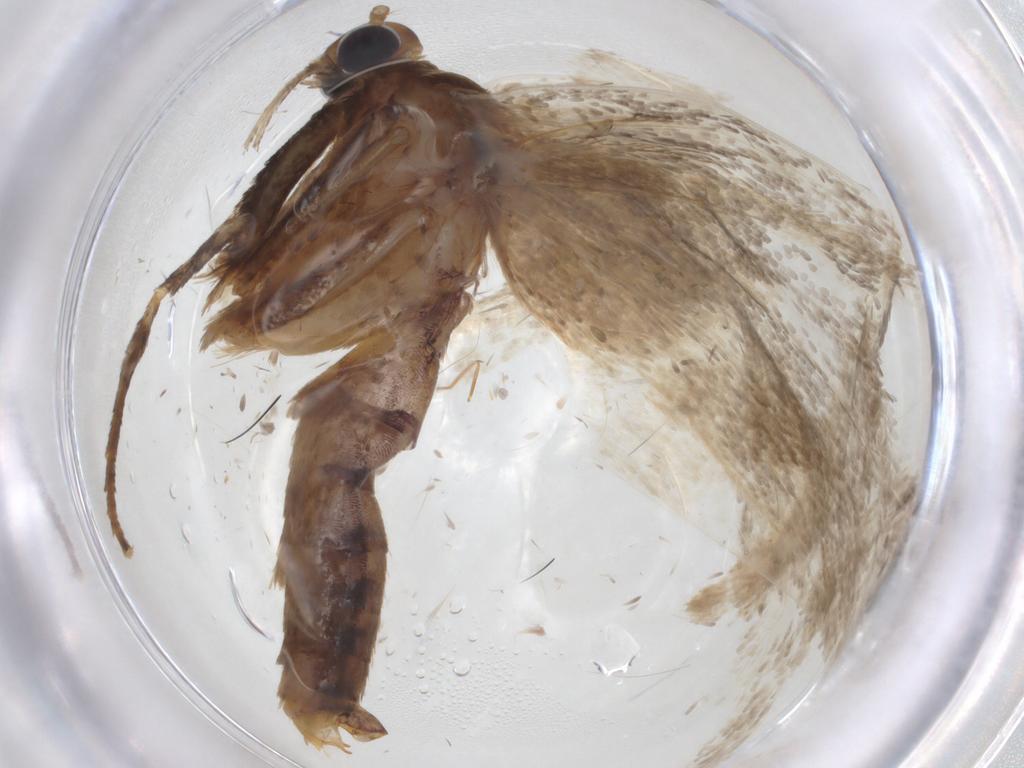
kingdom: Animalia
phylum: Arthropoda
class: Insecta
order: Lepidoptera
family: Oecophoridae
